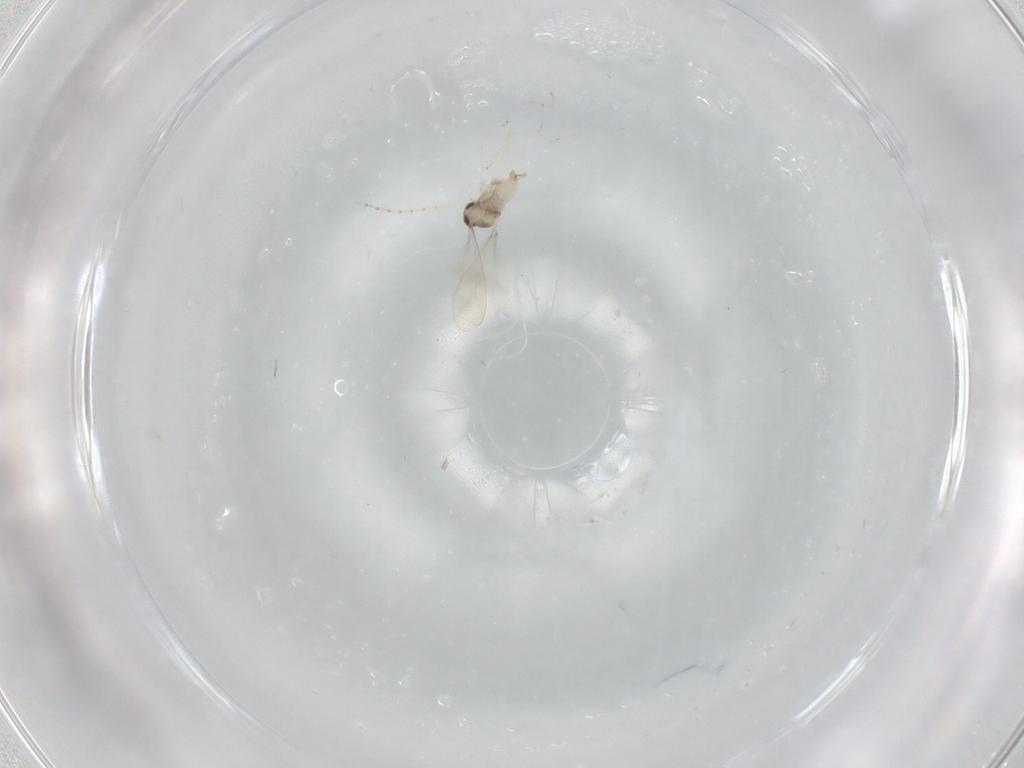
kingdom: Animalia
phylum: Arthropoda
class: Insecta
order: Diptera
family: Cecidomyiidae
